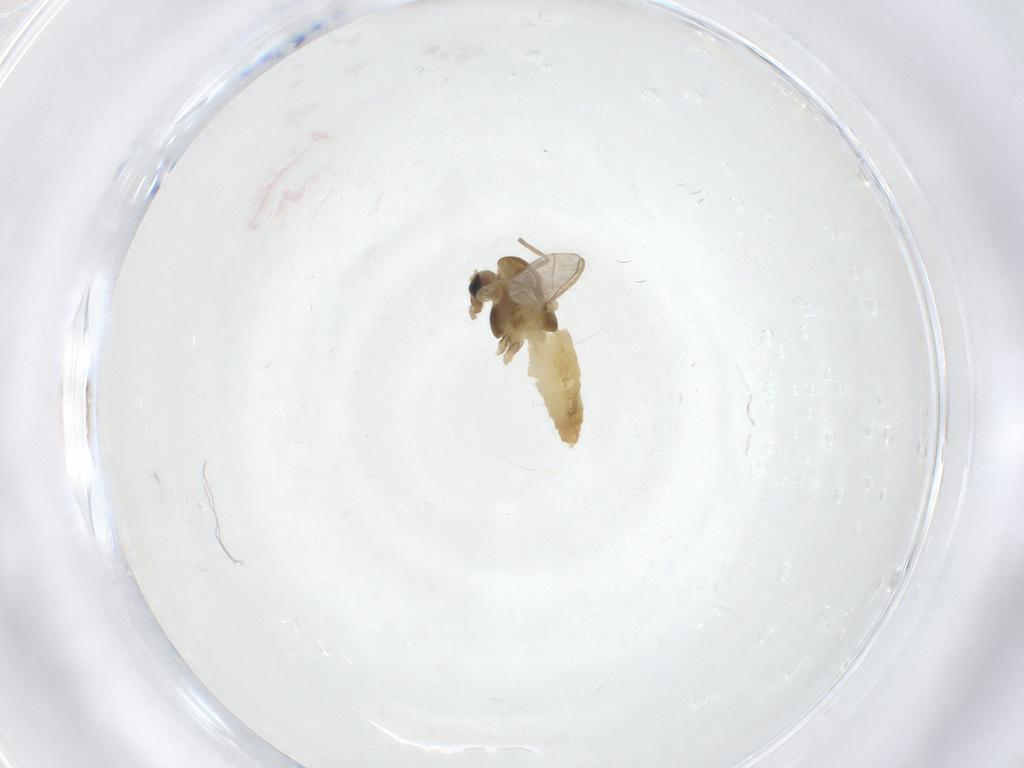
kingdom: Animalia
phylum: Arthropoda
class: Insecta
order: Diptera
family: Chironomidae
